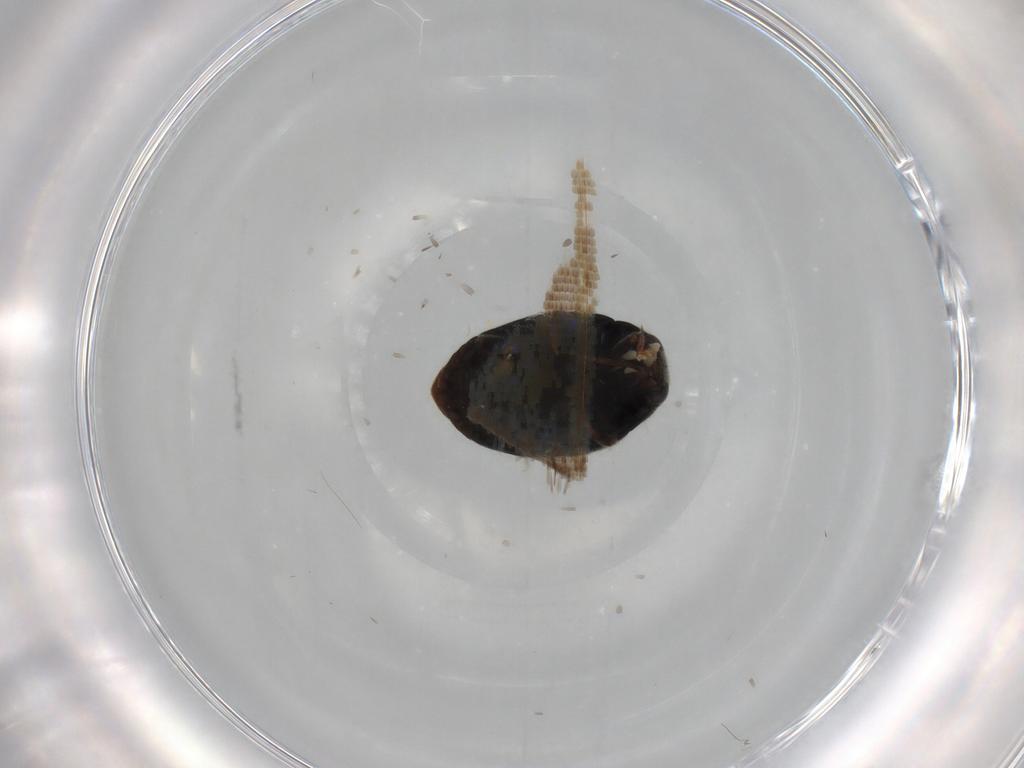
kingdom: Animalia
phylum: Arthropoda
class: Insecta
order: Coleoptera
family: Coccinellidae
